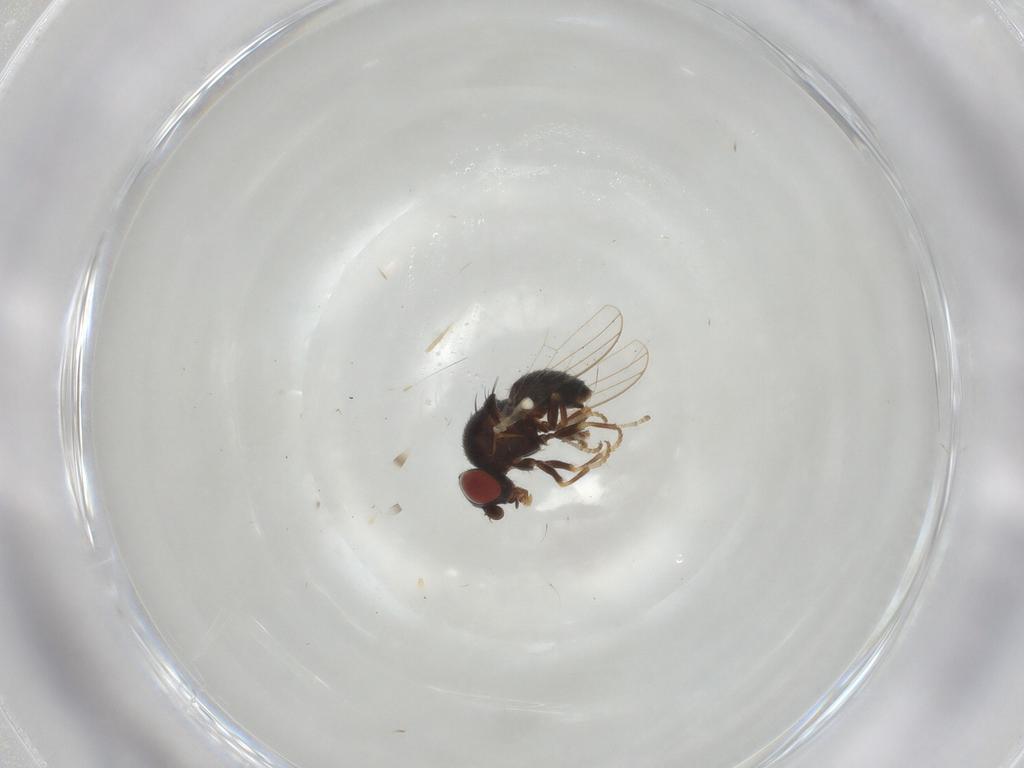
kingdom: Animalia
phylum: Arthropoda
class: Insecta
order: Diptera
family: Chamaemyiidae
